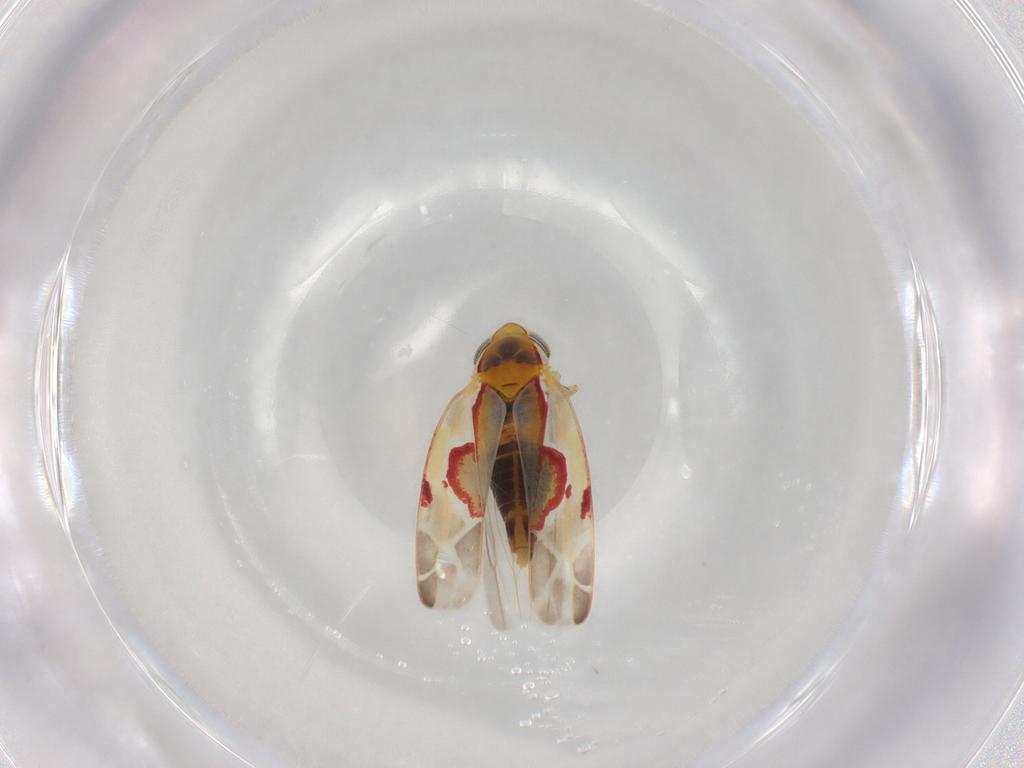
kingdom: Animalia
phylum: Arthropoda
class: Insecta
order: Hemiptera
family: Cicadellidae
